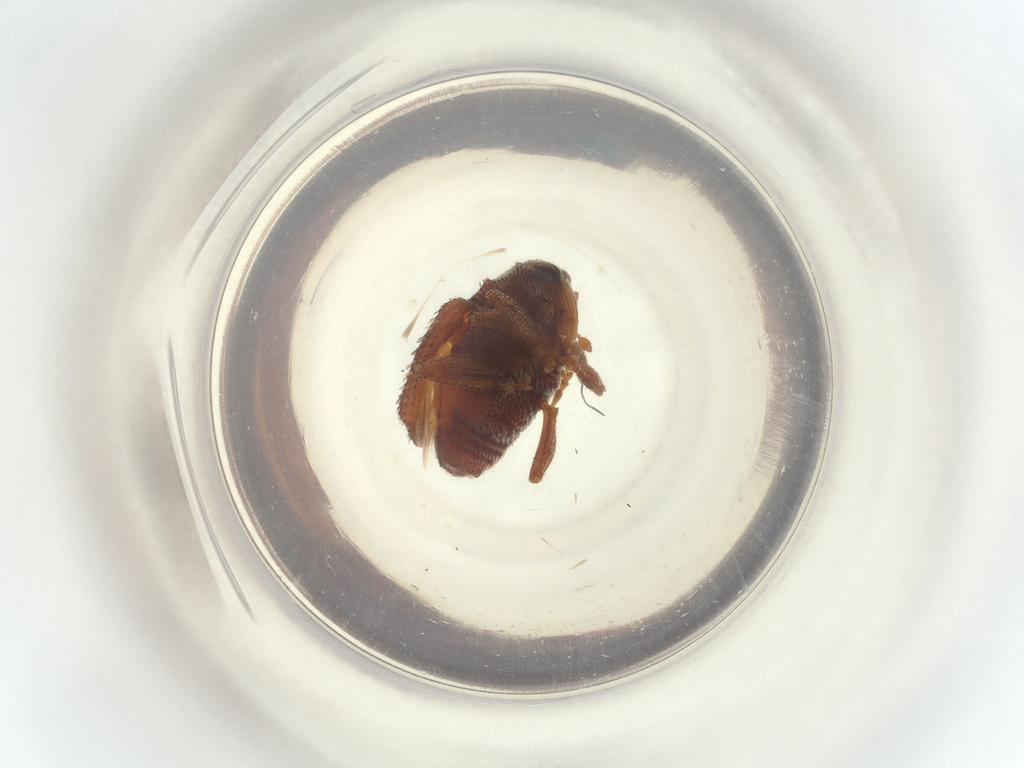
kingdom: Animalia
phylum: Arthropoda
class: Insecta
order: Coleoptera
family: Curculionidae
